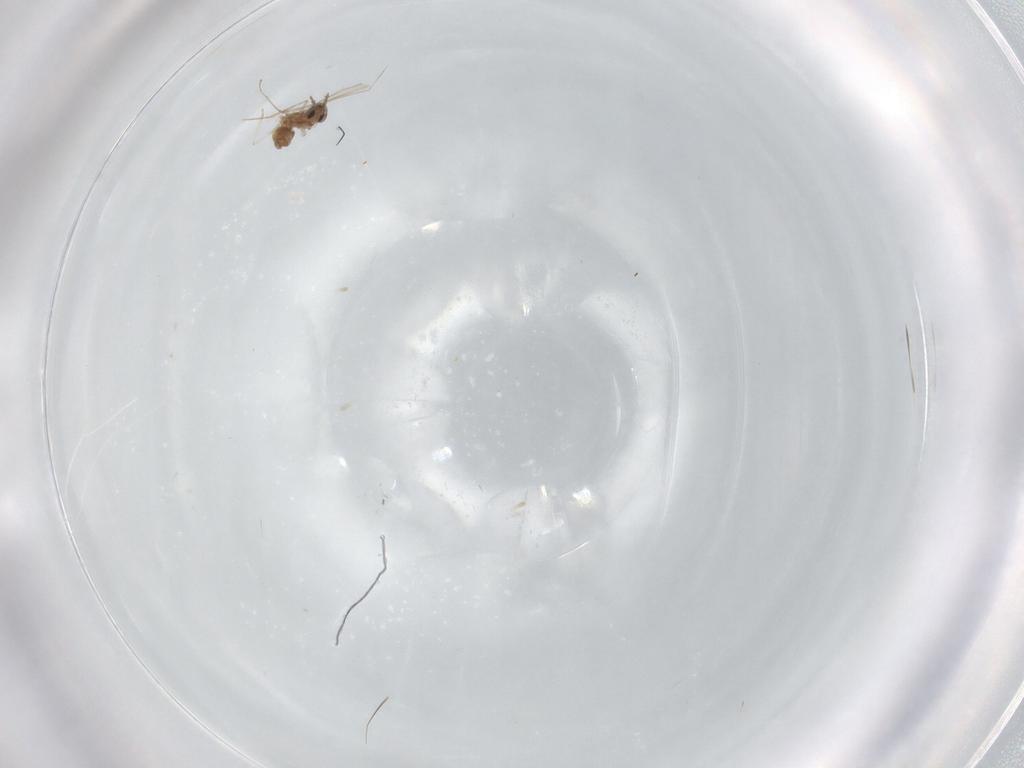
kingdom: Animalia
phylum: Arthropoda
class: Insecta
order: Diptera
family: Cecidomyiidae
